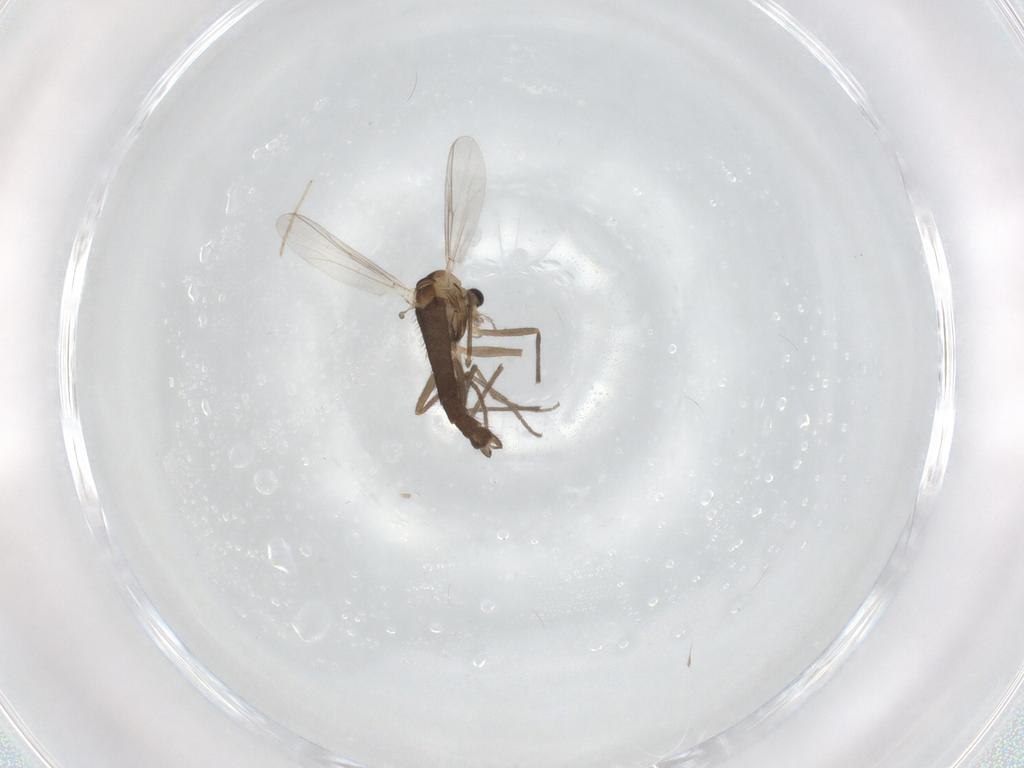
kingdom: Animalia
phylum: Arthropoda
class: Insecta
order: Diptera
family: Chironomidae
